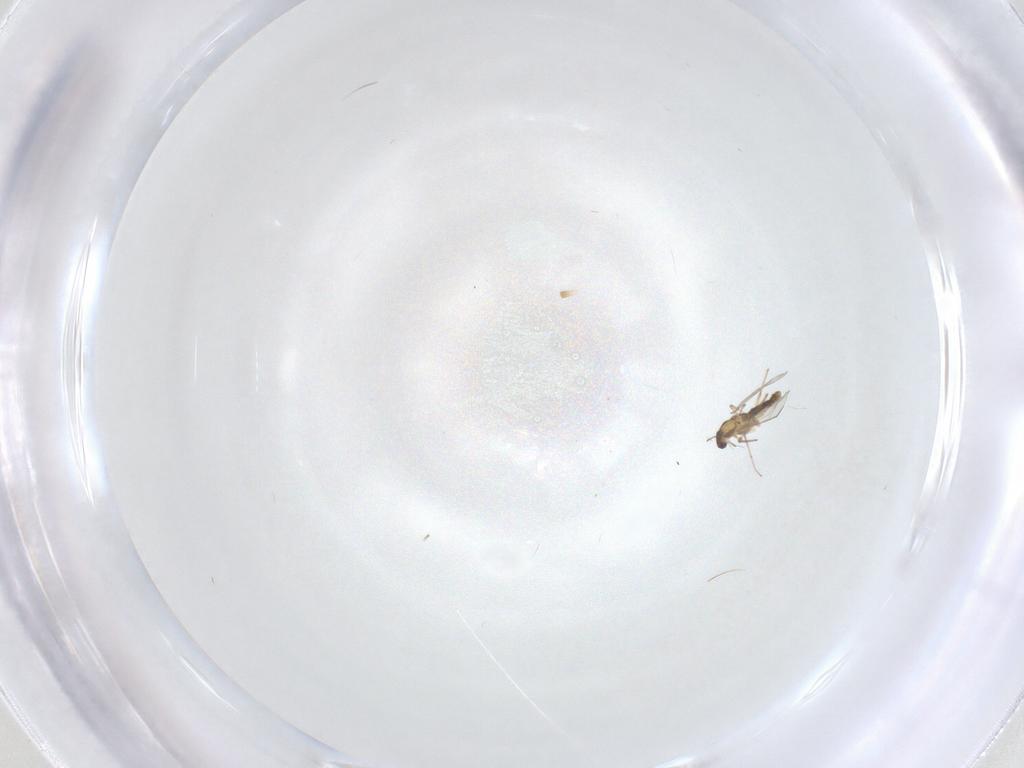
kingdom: Animalia
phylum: Arthropoda
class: Insecta
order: Diptera
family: Chironomidae
